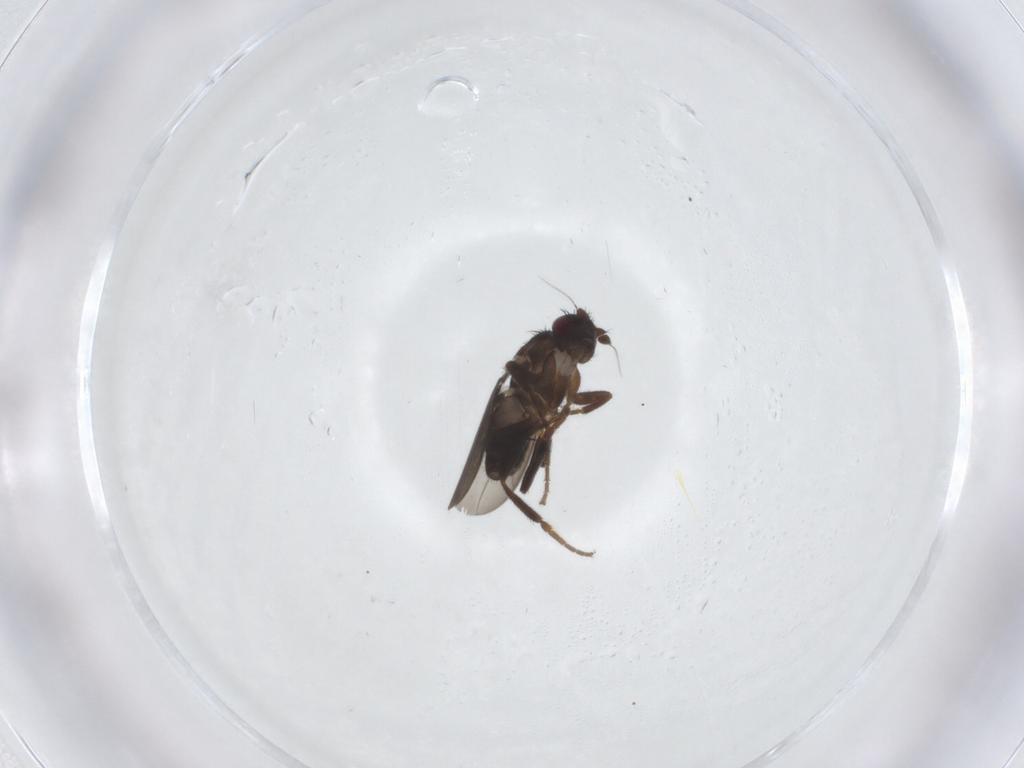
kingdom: Animalia
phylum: Arthropoda
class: Insecta
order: Diptera
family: Sphaeroceridae
